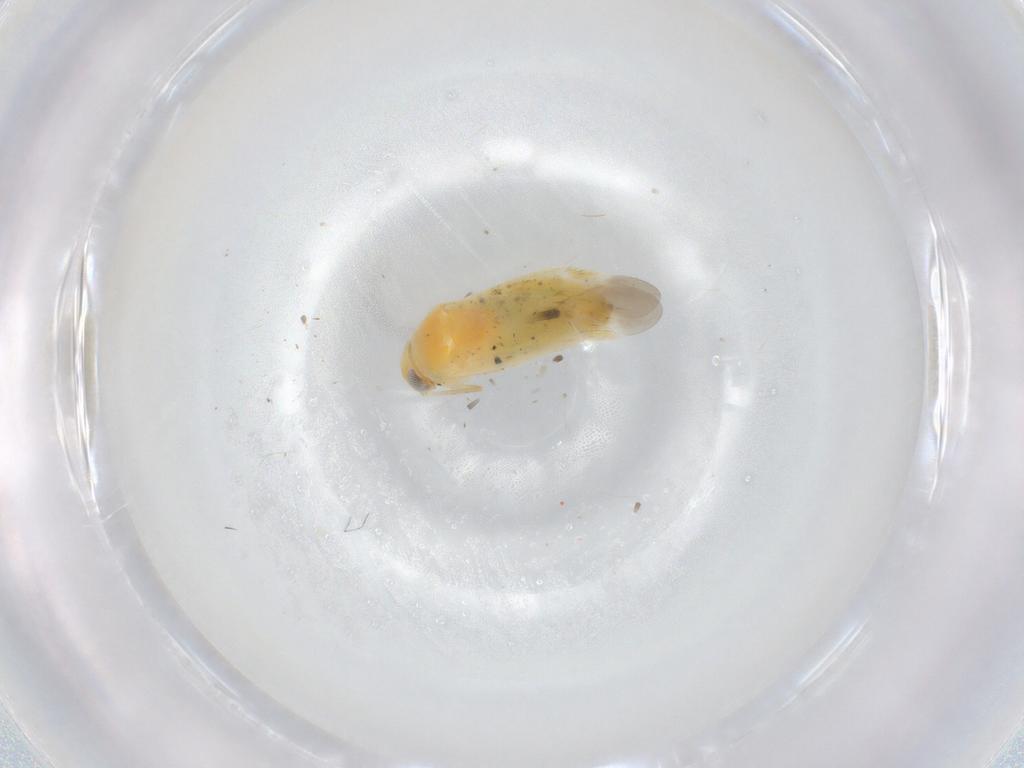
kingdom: Animalia
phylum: Arthropoda
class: Insecta
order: Hemiptera
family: Miridae
